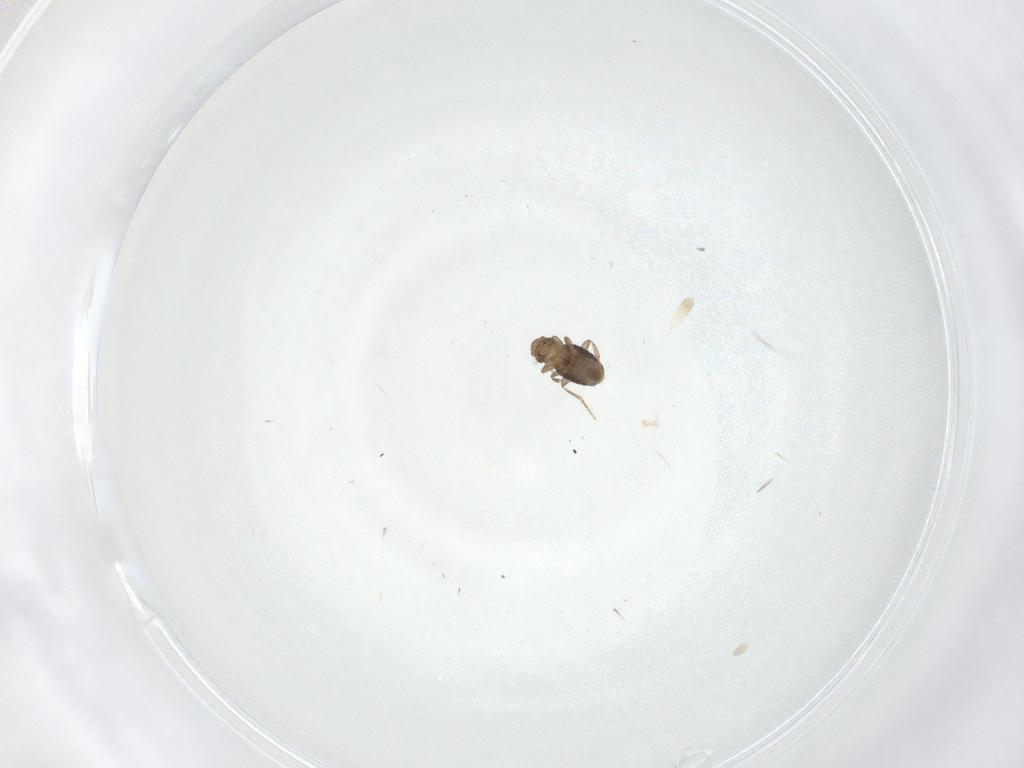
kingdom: Animalia
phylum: Arthropoda
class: Insecta
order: Diptera
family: Phoridae
